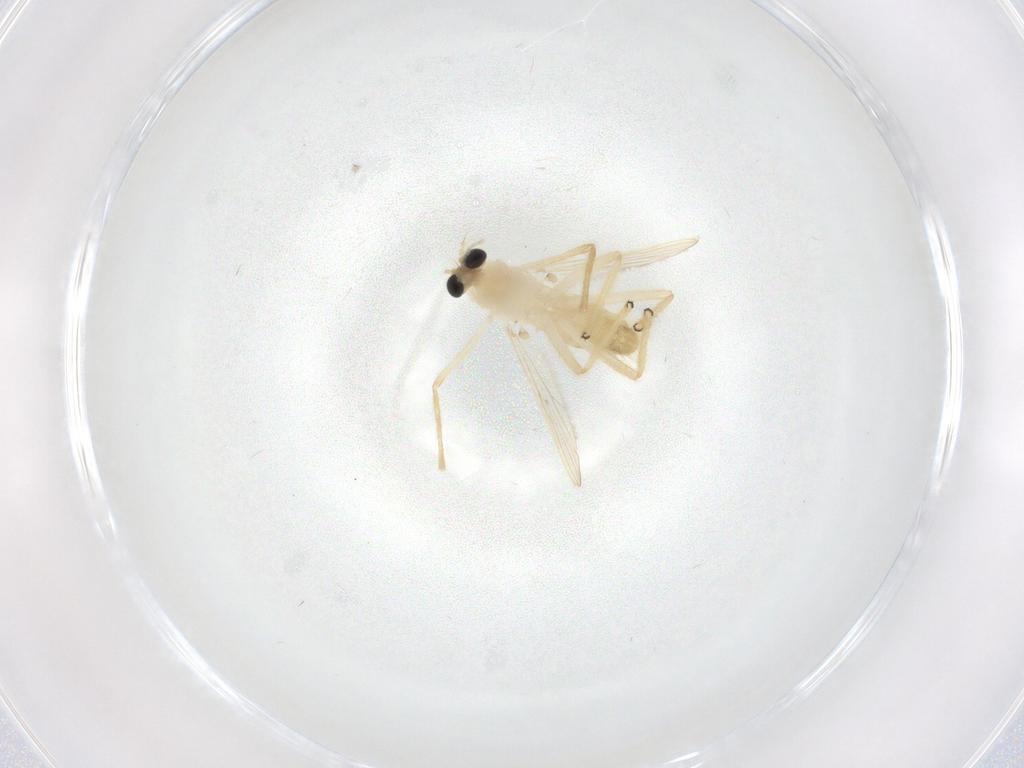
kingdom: Animalia
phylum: Arthropoda
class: Insecta
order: Diptera
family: Chironomidae
